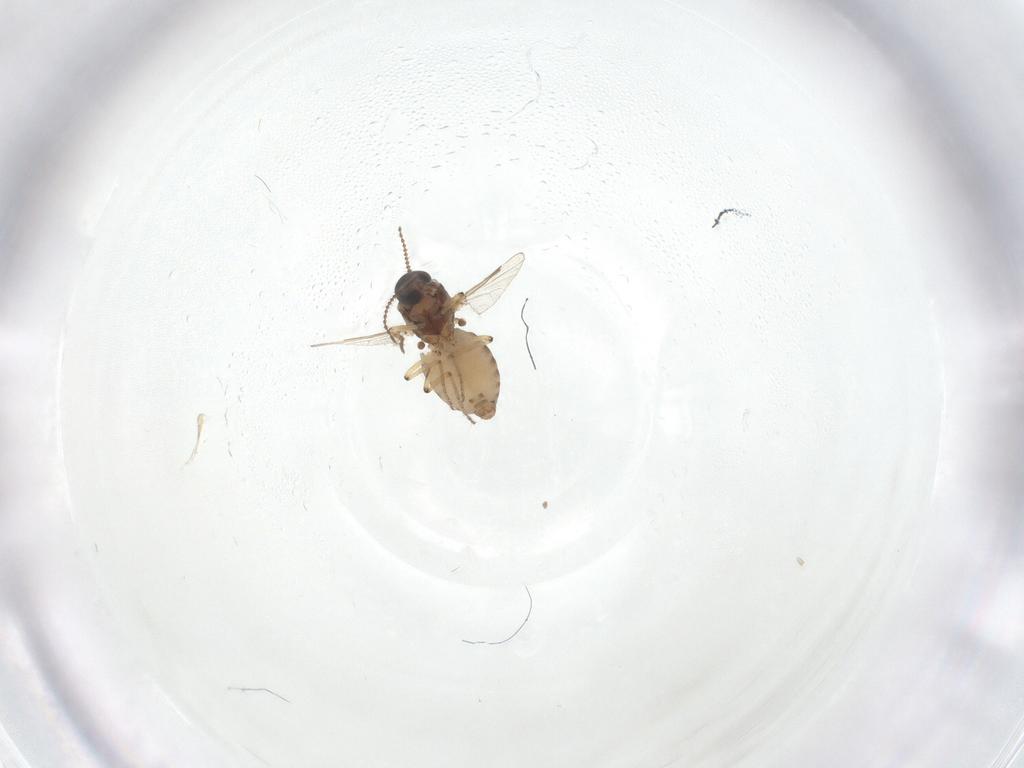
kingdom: Animalia
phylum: Arthropoda
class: Insecta
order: Diptera
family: Ceratopogonidae
